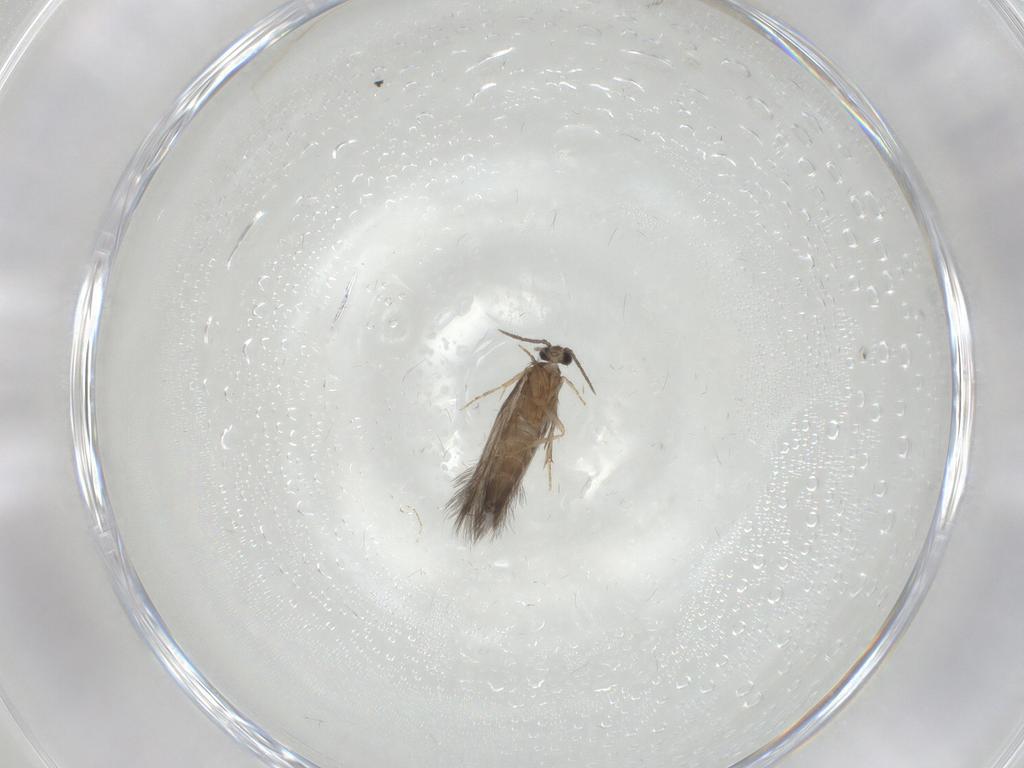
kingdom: Animalia
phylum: Arthropoda
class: Insecta
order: Trichoptera
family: Hydroptilidae
